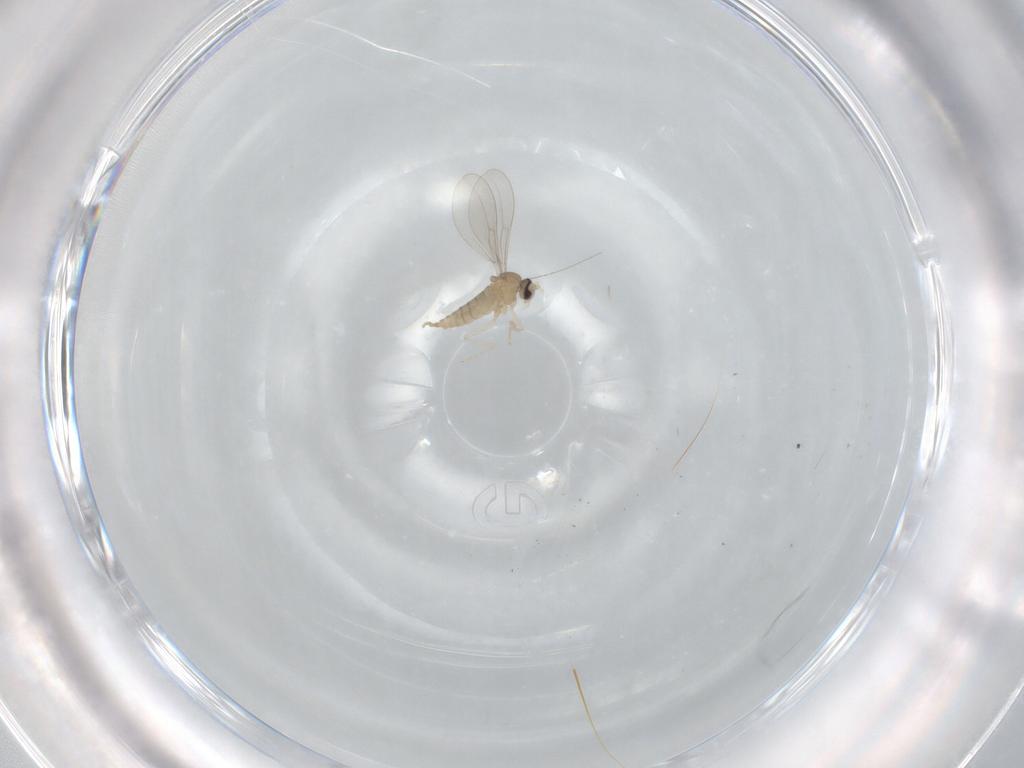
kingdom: Animalia
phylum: Arthropoda
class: Insecta
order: Diptera
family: Cecidomyiidae
